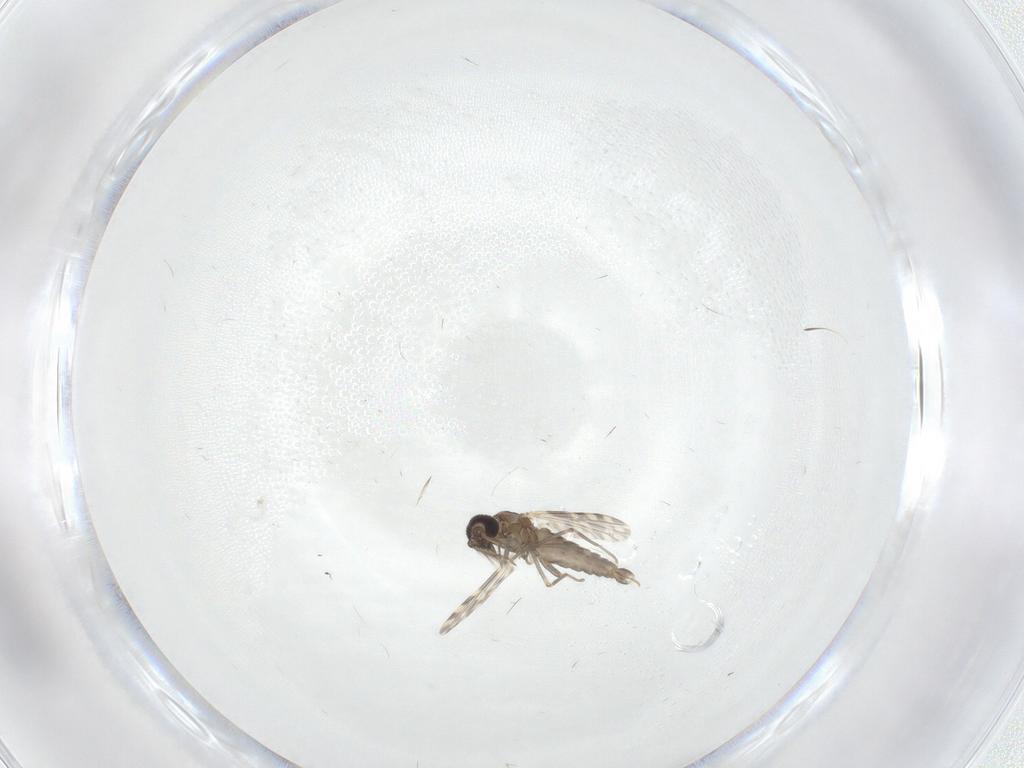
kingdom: Animalia
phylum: Arthropoda
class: Insecta
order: Diptera
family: Ceratopogonidae
